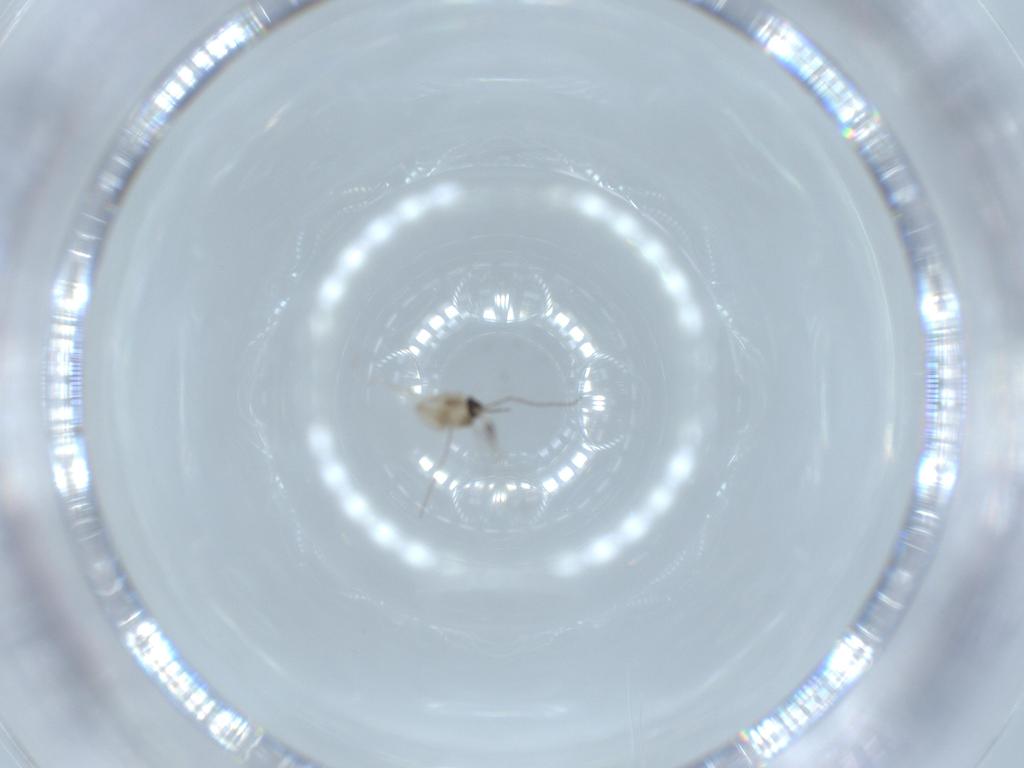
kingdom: Animalia
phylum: Arthropoda
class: Insecta
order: Diptera
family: Cecidomyiidae
